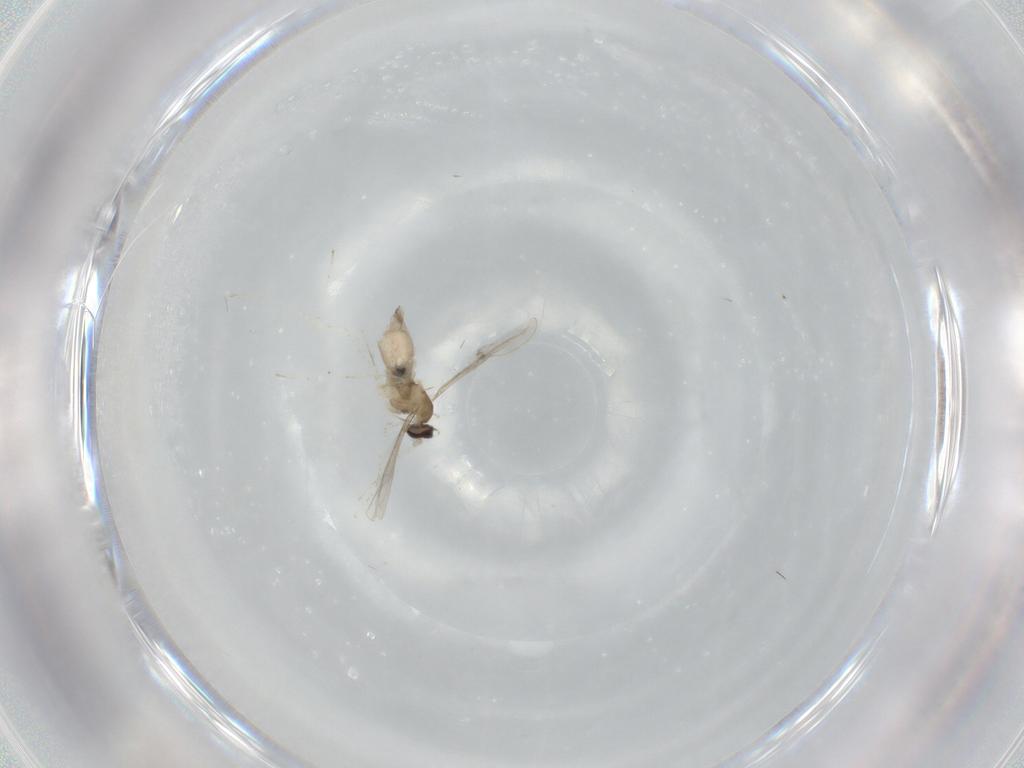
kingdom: Animalia
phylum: Arthropoda
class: Insecta
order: Diptera
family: Cecidomyiidae
